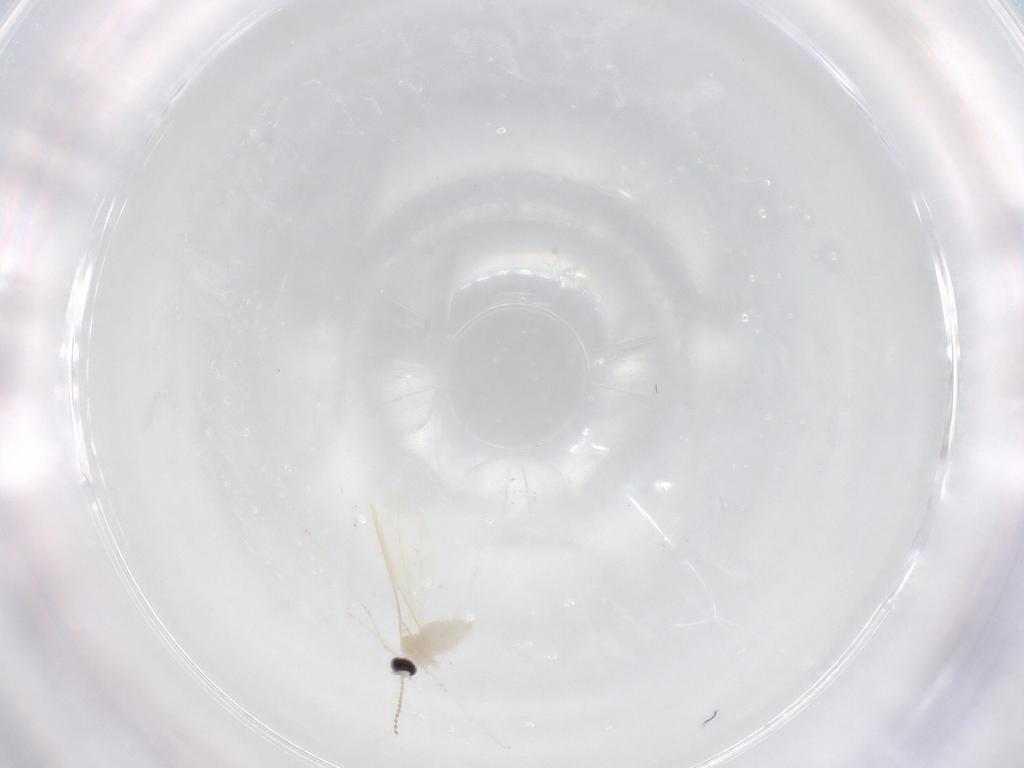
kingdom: Animalia
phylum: Arthropoda
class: Insecta
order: Diptera
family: Cecidomyiidae
